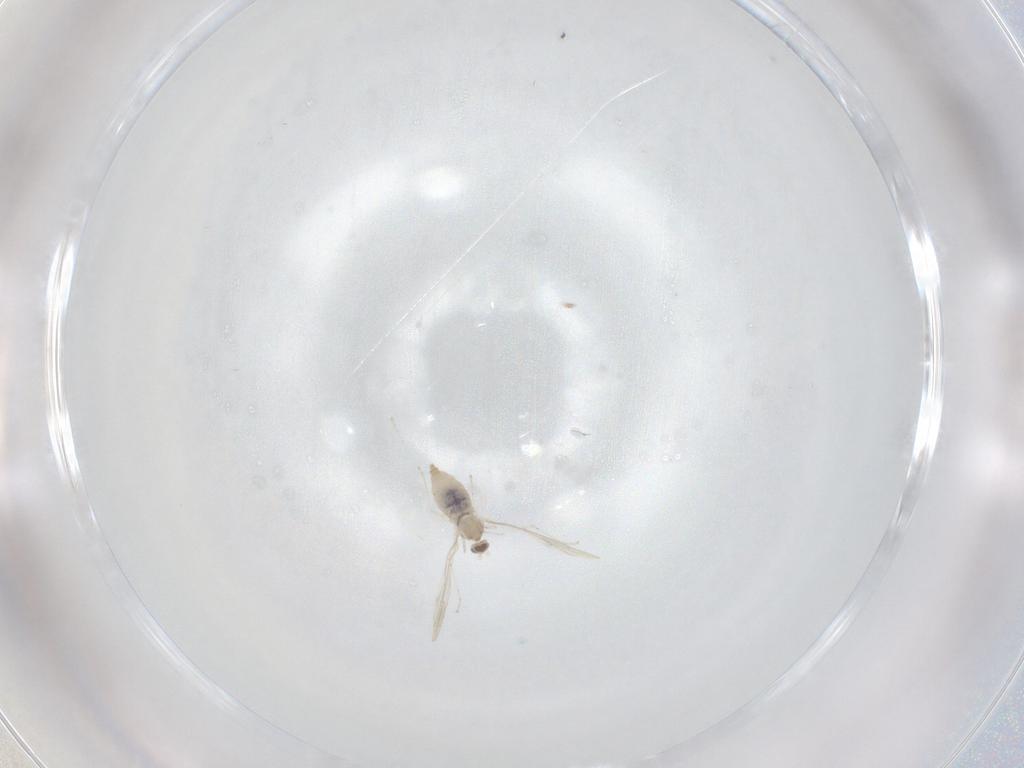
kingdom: Animalia
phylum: Arthropoda
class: Insecta
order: Diptera
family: Cecidomyiidae
